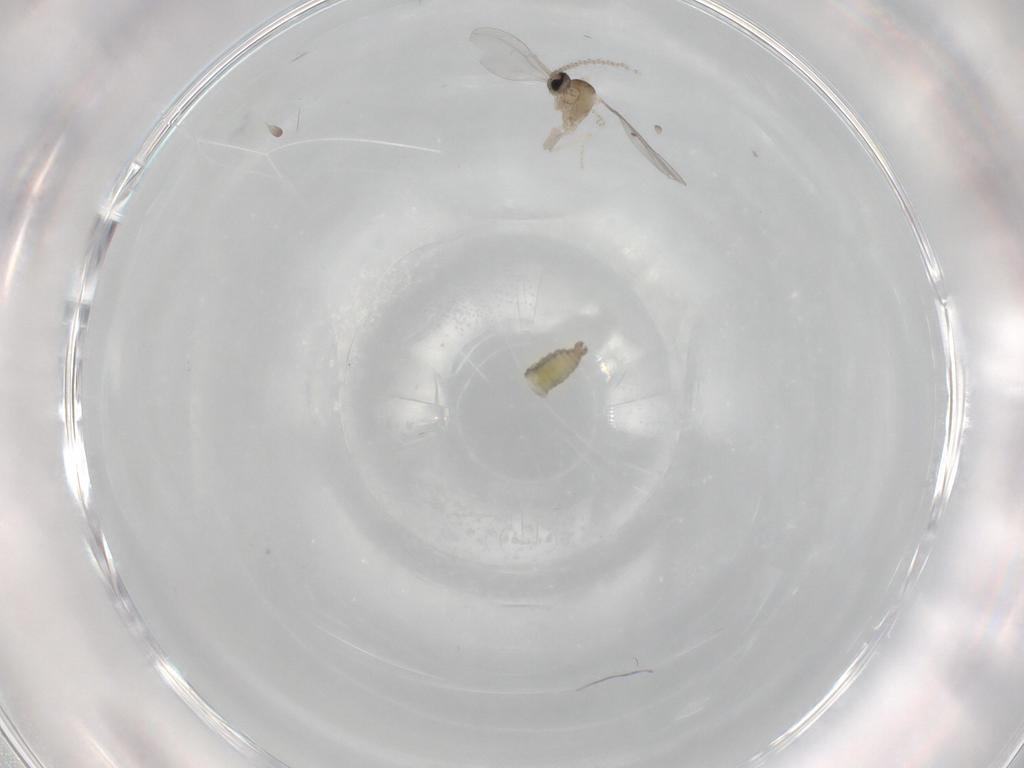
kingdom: Animalia
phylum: Arthropoda
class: Insecta
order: Diptera
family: Cecidomyiidae
